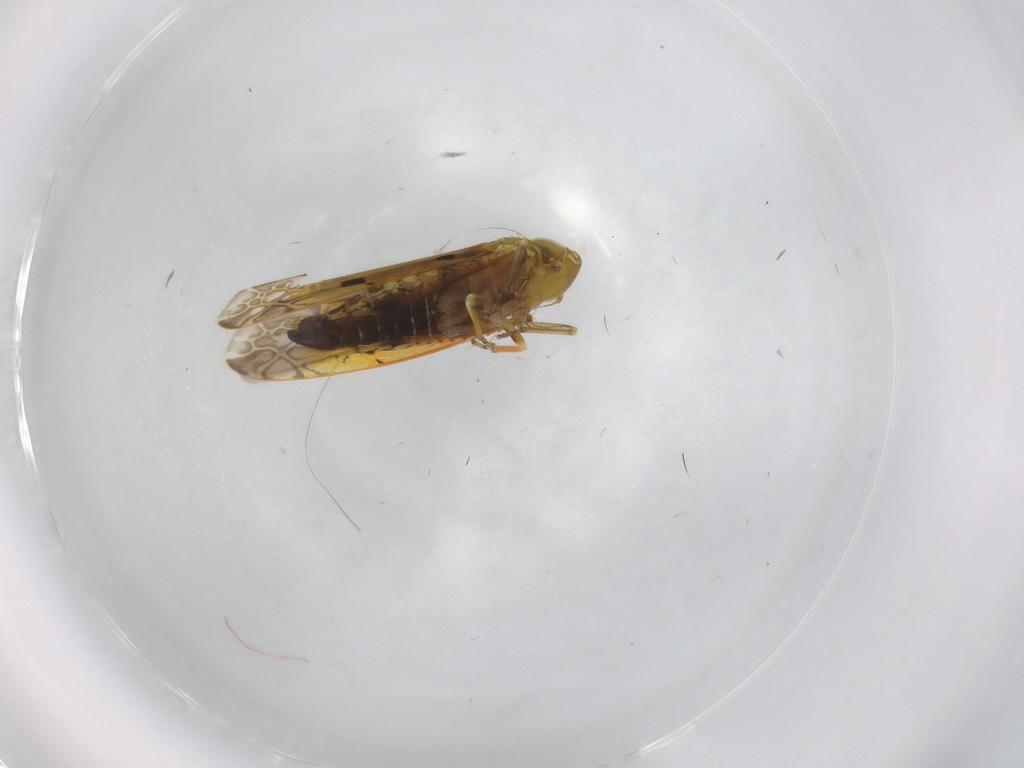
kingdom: Animalia
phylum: Arthropoda
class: Insecta
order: Hemiptera
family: Cicadellidae
